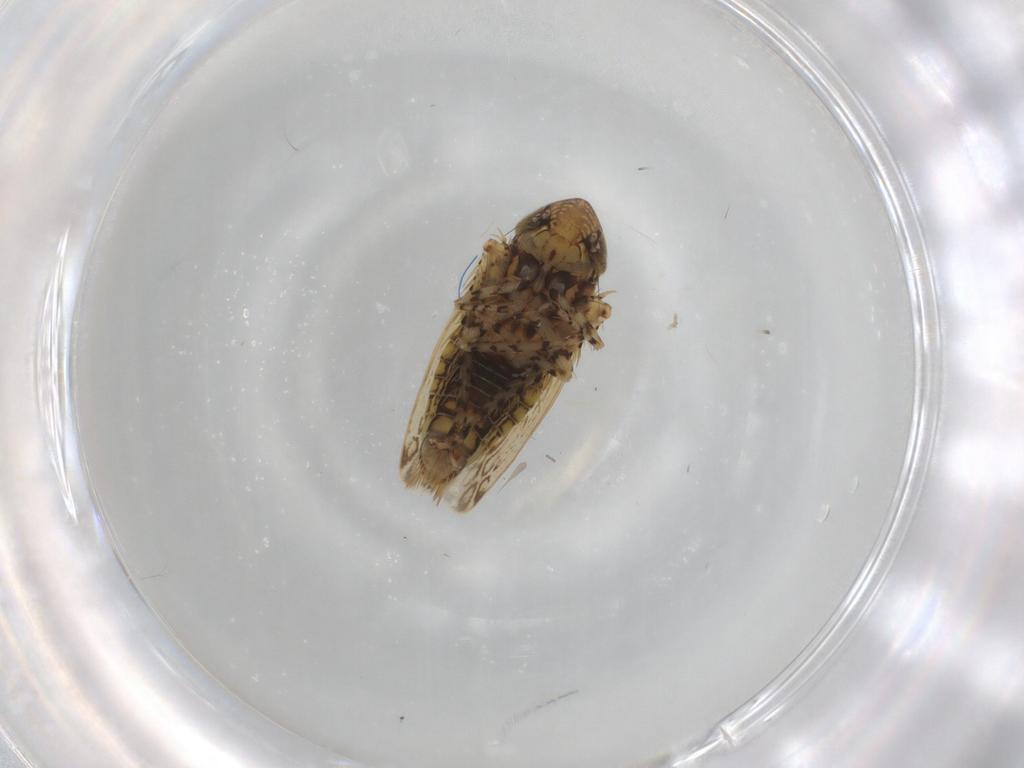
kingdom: Animalia
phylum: Arthropoda
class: Insecta
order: Hemiptera
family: Cicadellidae
